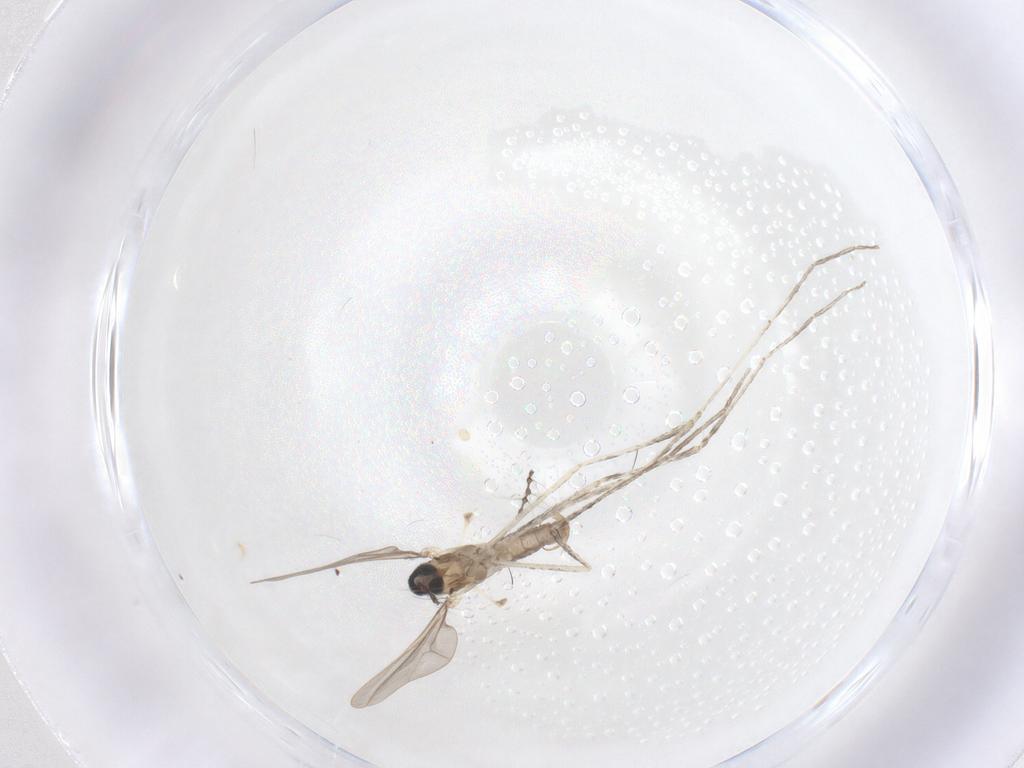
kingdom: Animalia
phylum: Arthropoda
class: Insecta
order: Diptera
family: Cecidomyiidae
